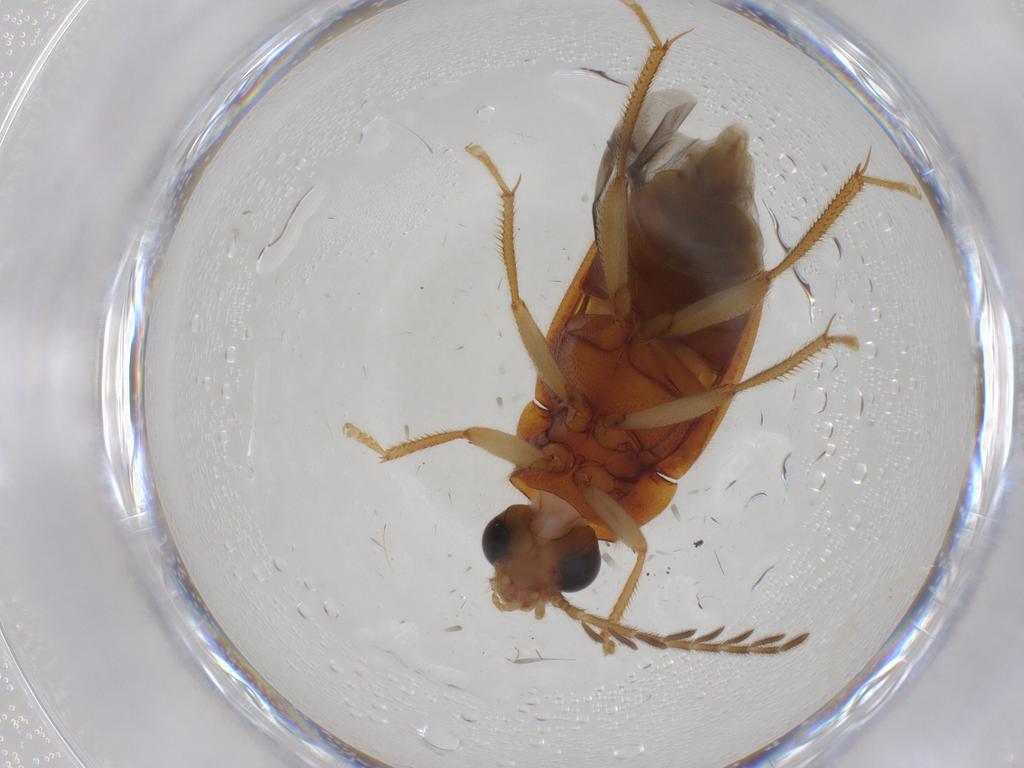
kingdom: Animalia
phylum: Arthropoda
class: Insecta
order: Coleoptera
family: Ptilodactylidae
